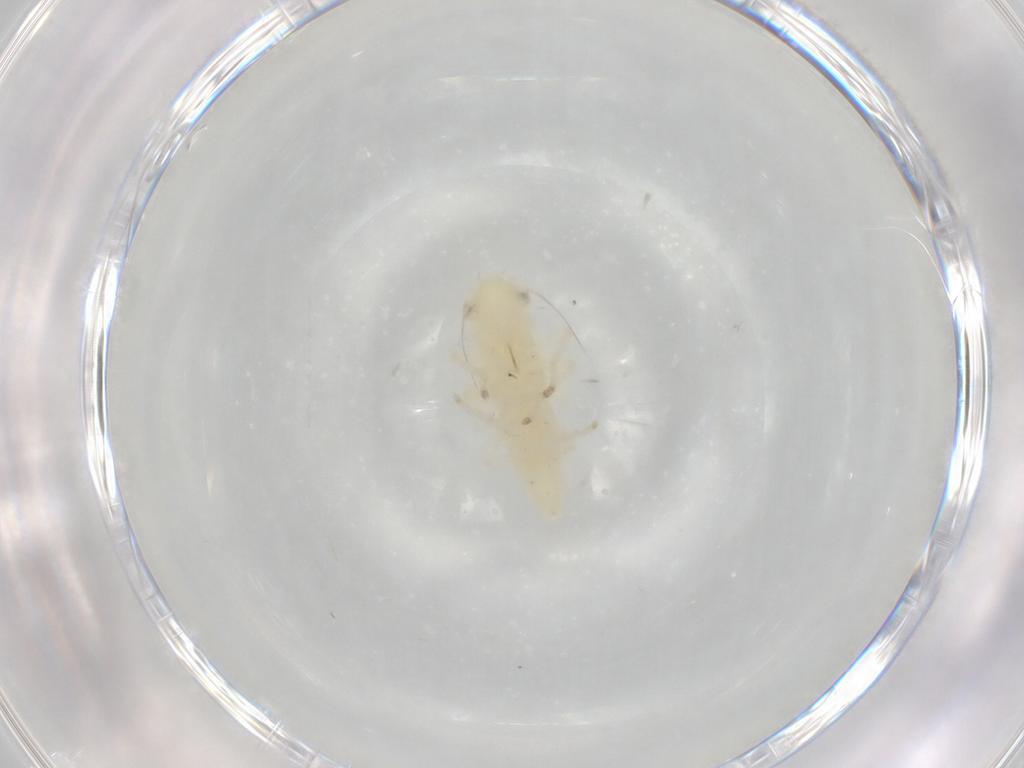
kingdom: Animalia
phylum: Arthropoda
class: Insecta
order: Hemiptera
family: Cicadellidae
